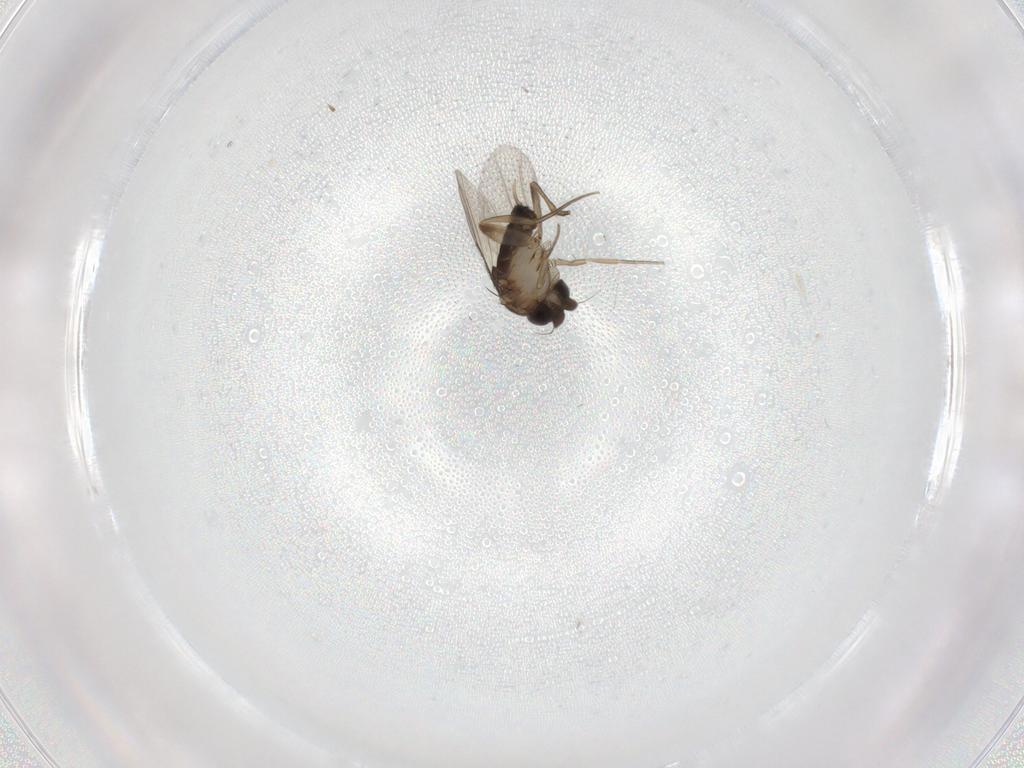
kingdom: Animalia
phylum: Arthropoda
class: Insecta
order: Diptera
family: Phoridae
